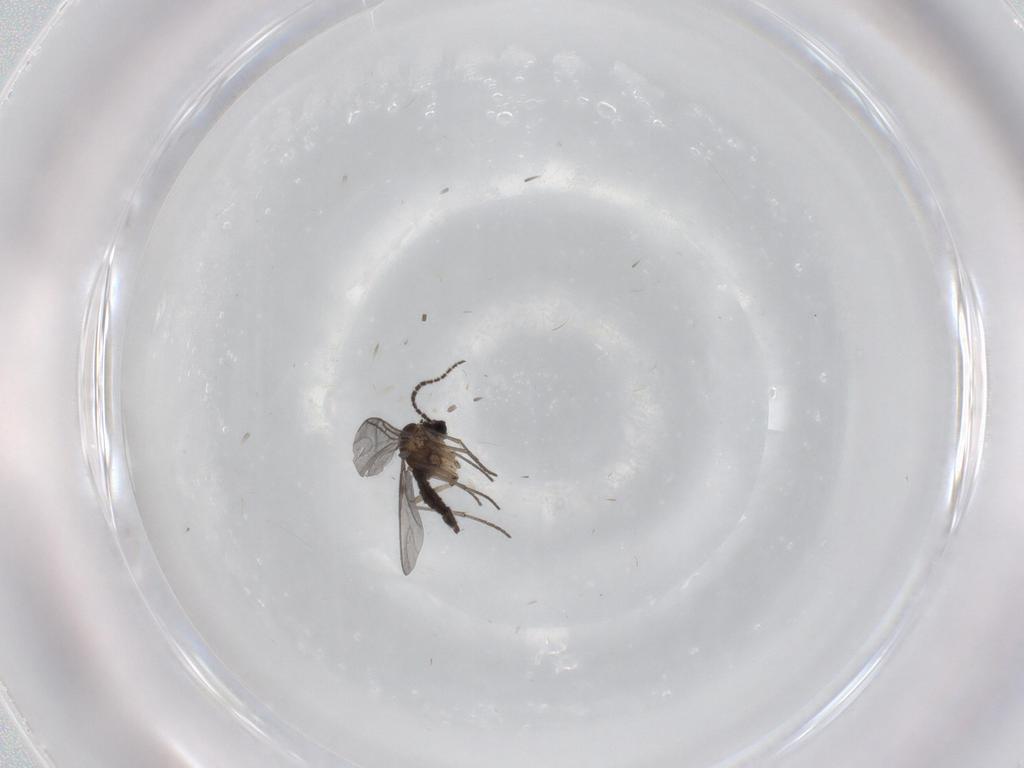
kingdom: Animalia
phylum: Arthropoda
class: Insecta
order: Diptera
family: Sciaridae
